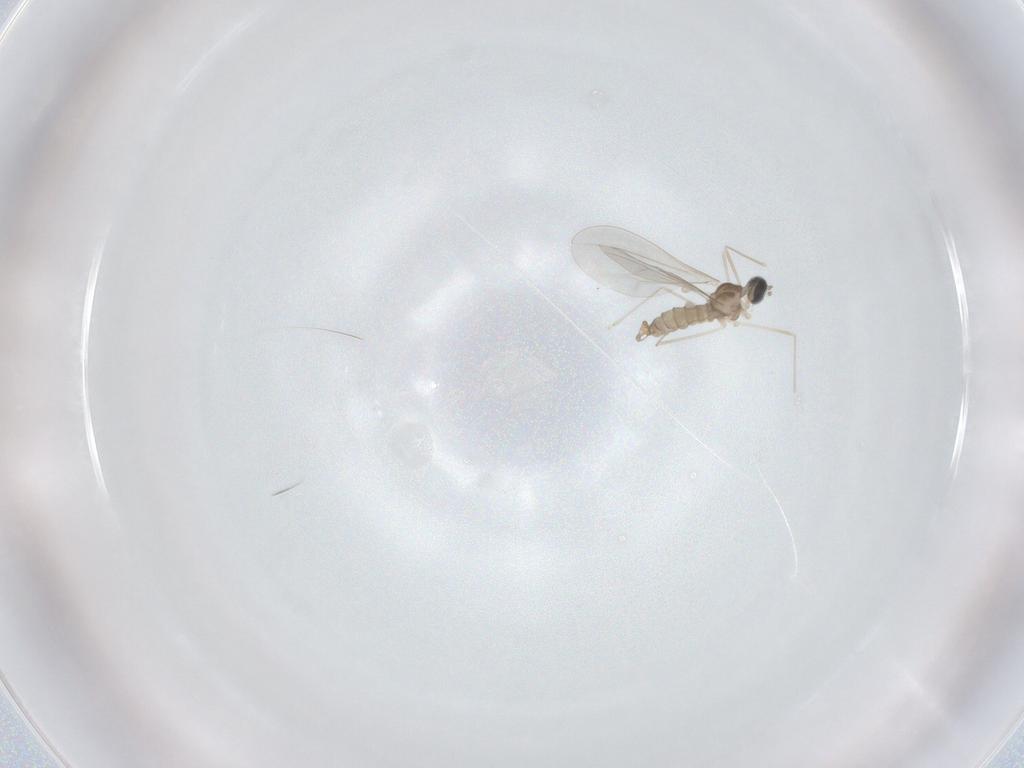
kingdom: Animalia
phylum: Arthropoda
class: Insecta
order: Diptera
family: Cecidomyiidae
